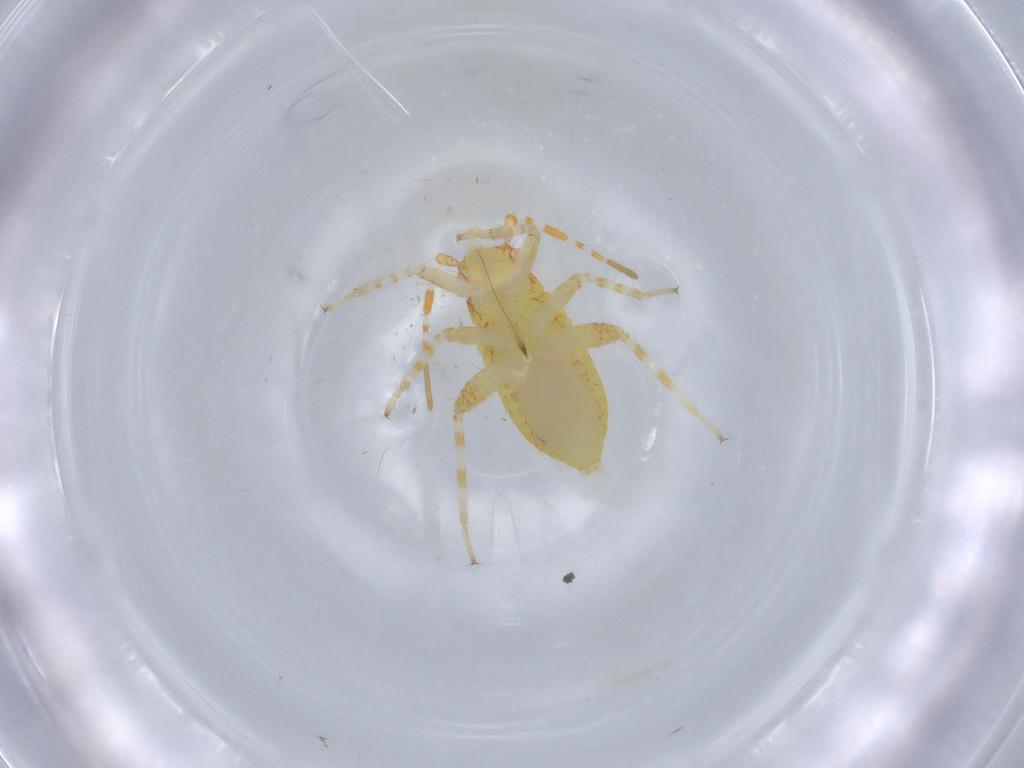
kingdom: Animalia
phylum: Arthropoda
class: Insecta
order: Hemiptera
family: Miridae
